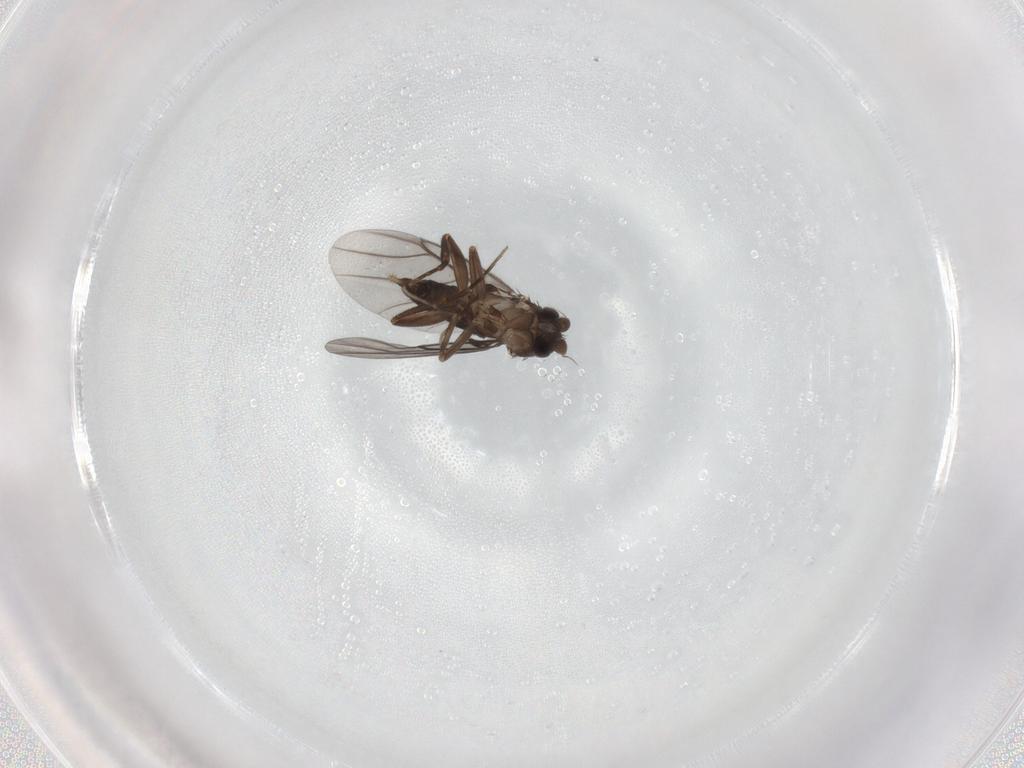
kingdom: Animalia
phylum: Arthropoda
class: Insecta
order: Diptera
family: Phoridae
